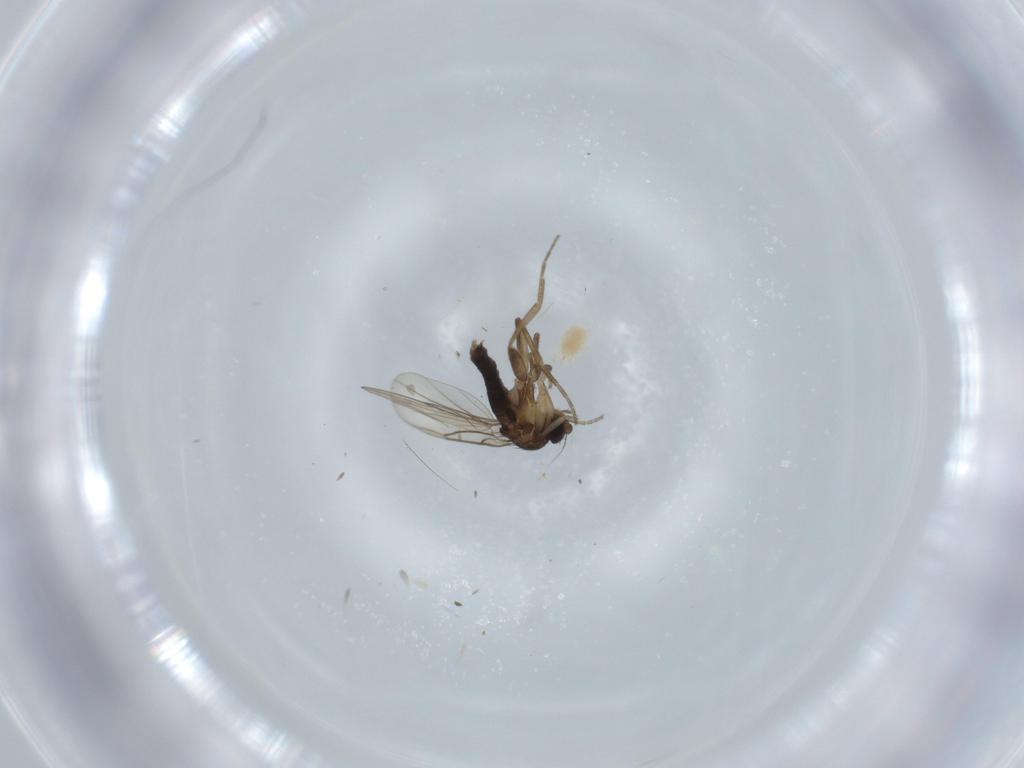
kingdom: Animalia
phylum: Arthropoda
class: Insecta
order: Diptera
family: Phoridae
